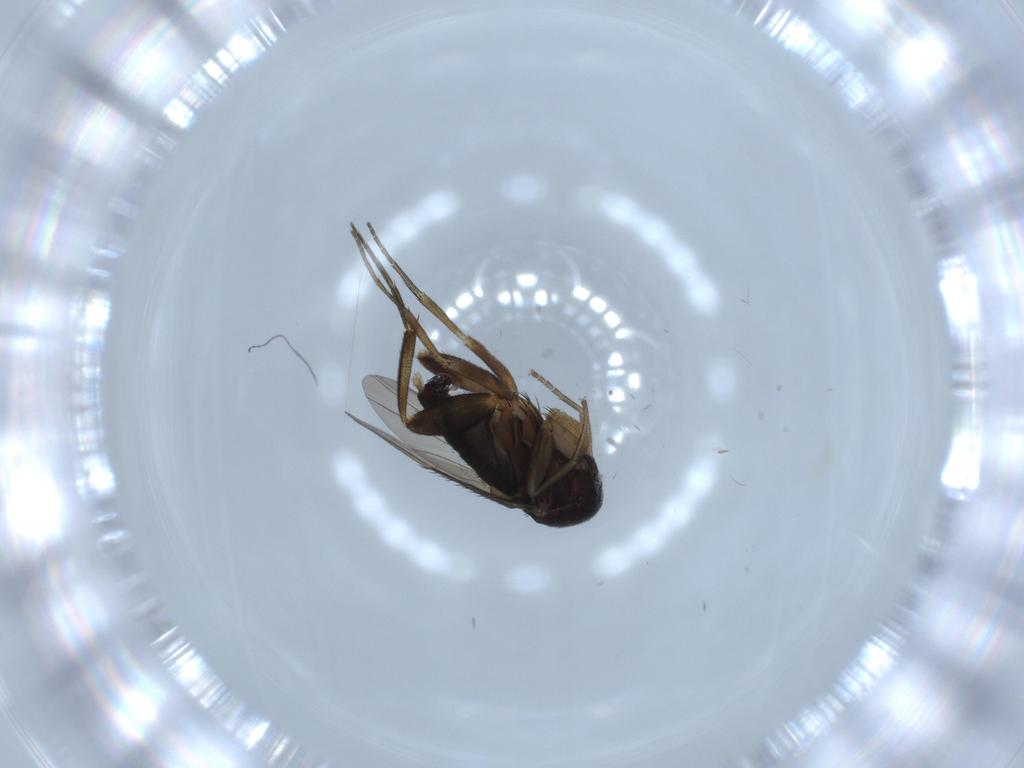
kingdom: Animalia
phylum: Arthropoda
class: Insecta
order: Diptera
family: Phoridae
